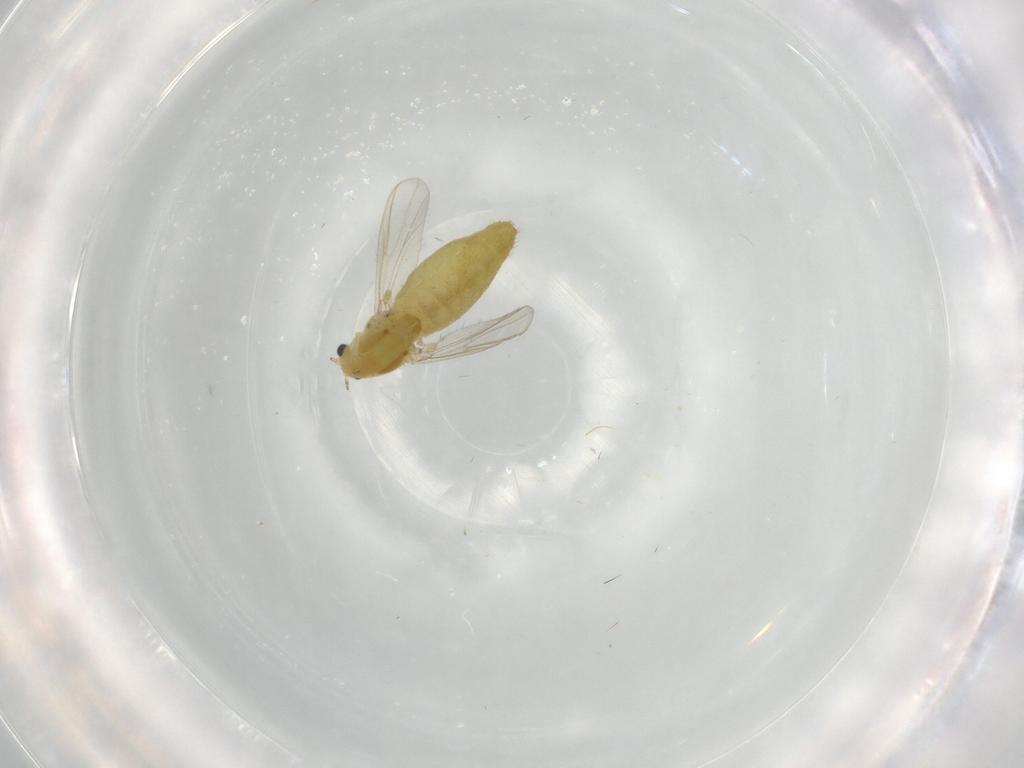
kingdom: Animalia
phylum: Arthropoda
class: Insecta
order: Diptera
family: Chironomidae
